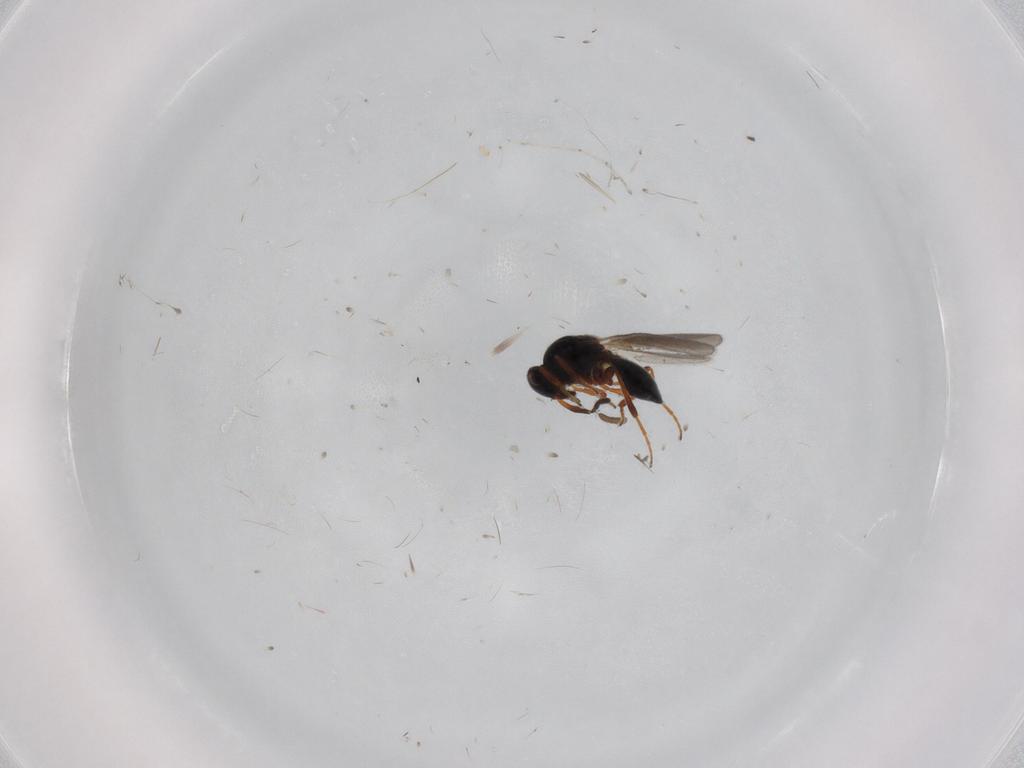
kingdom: Animalia
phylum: Arthropoda
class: Insecta
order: Hymenoptera
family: Platygastridae
